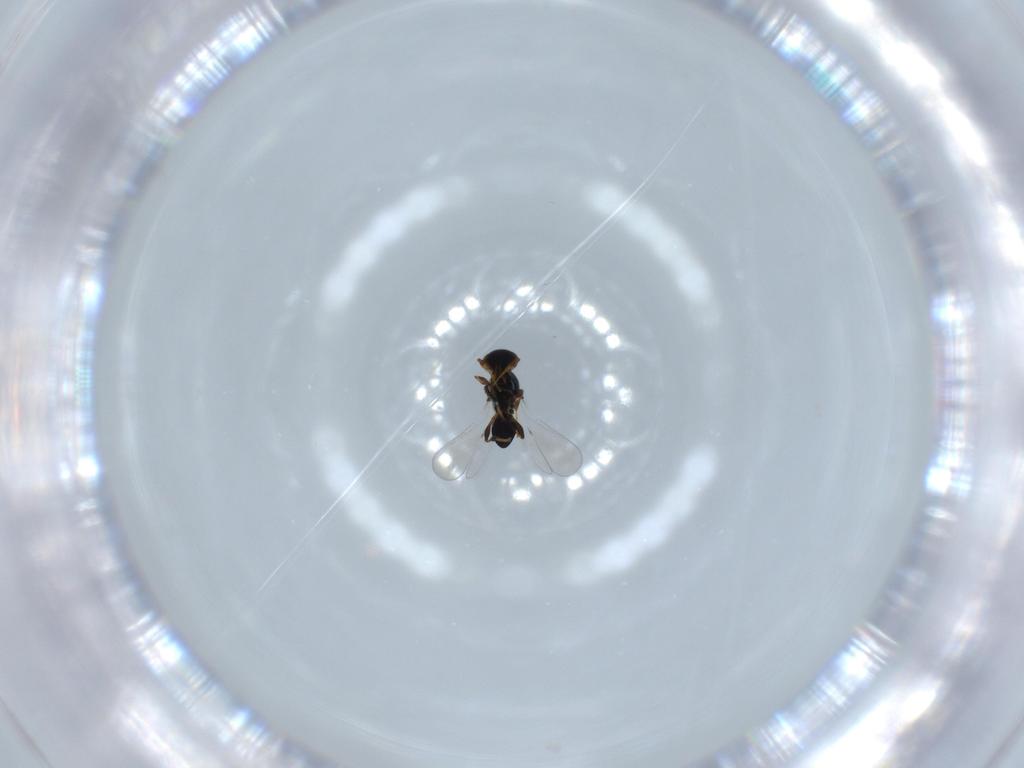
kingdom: Animalia
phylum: Arthropoda
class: Insecta
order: Hymenoptera
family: Platygastridae
